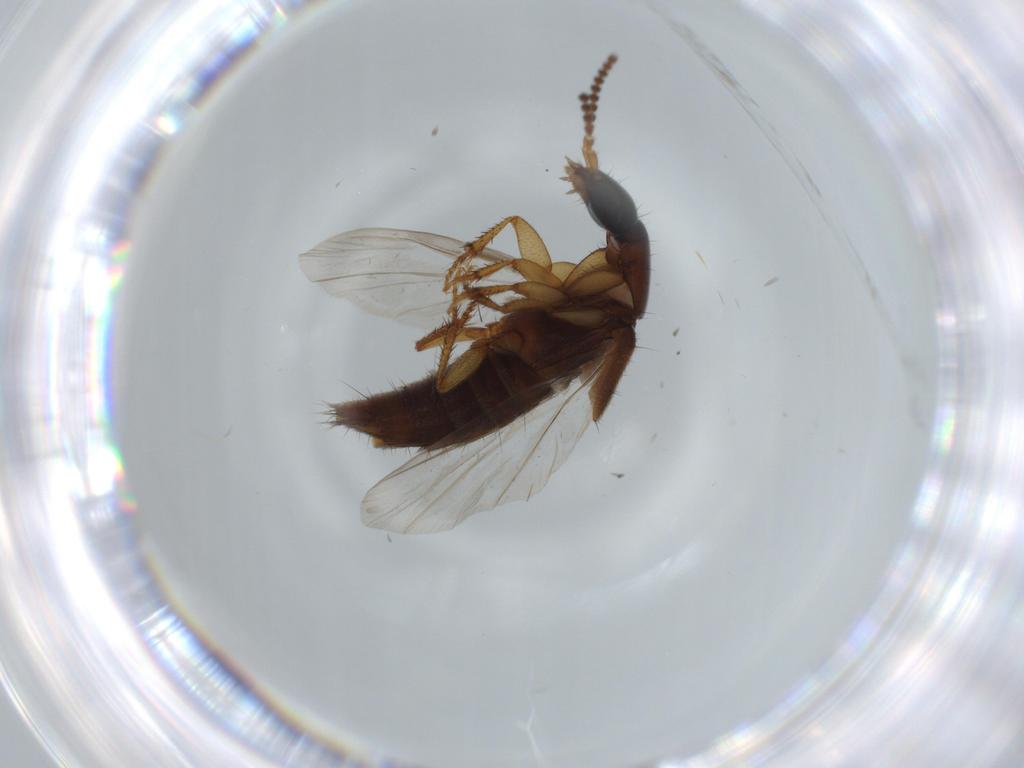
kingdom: Animalia
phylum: Arthropoda
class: Insecta
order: Coleoptera
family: Staphylinidae
